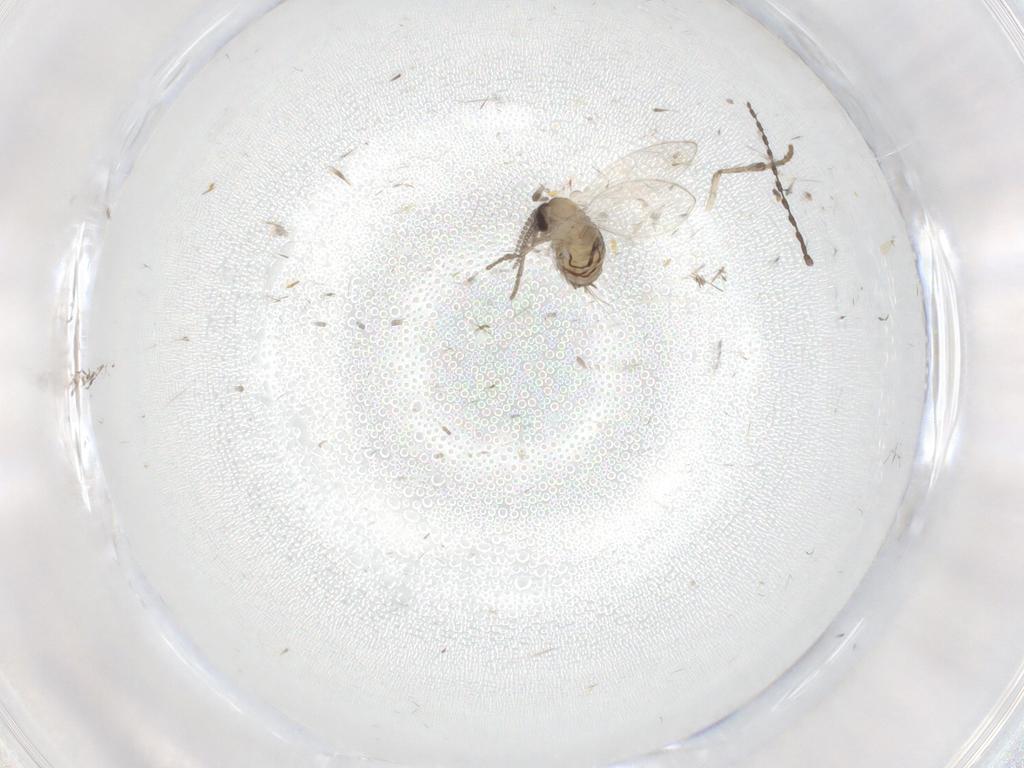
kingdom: Animalia
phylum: Arthropoda
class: Insecta
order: Diptera
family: Psychodidae
